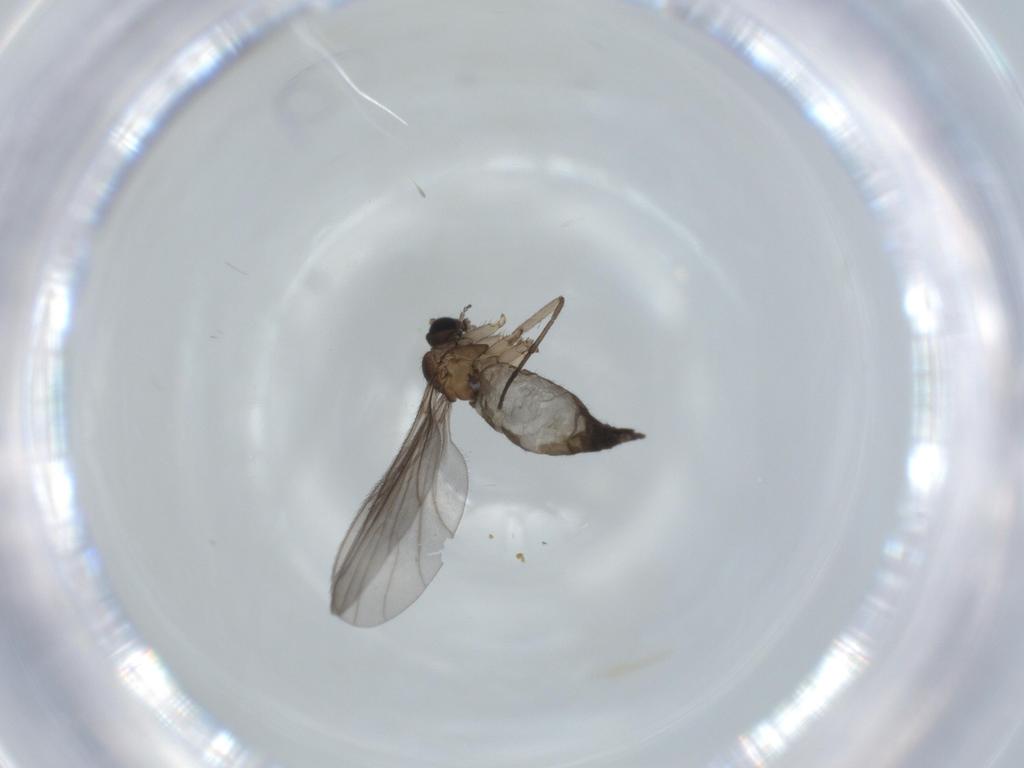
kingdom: Animalia
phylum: Arthropoda
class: Insecta
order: Diptera
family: Sciaridae
